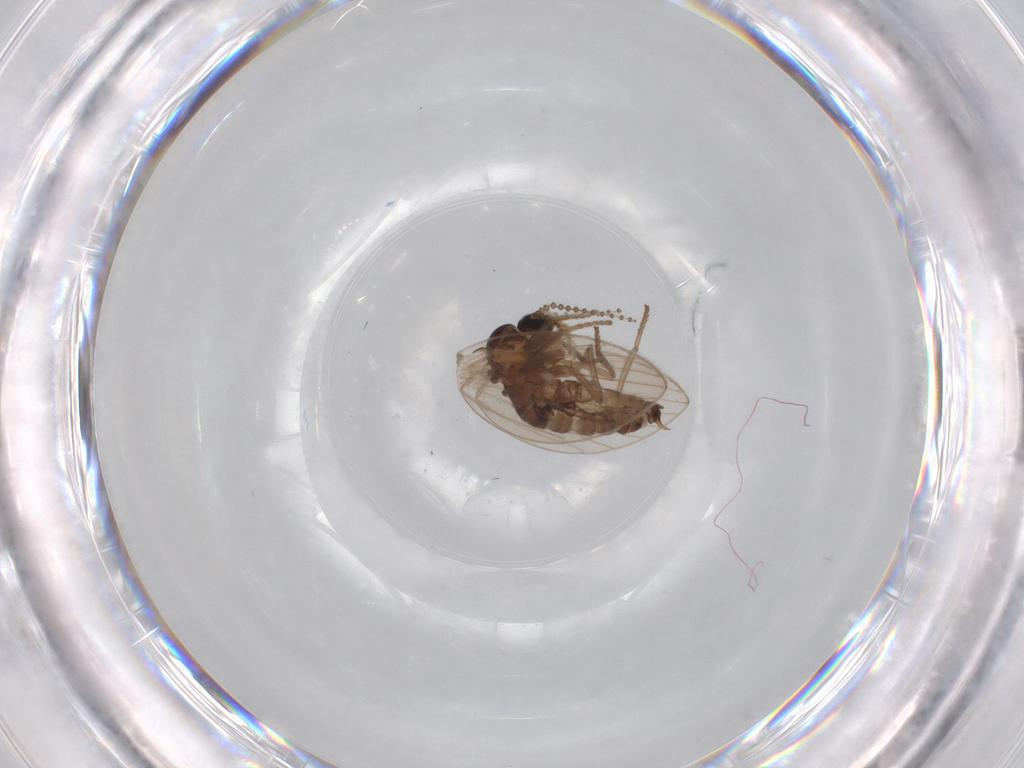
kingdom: Animalia
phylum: Arthropoda
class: Insecta
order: Diptera
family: Psychodidae
